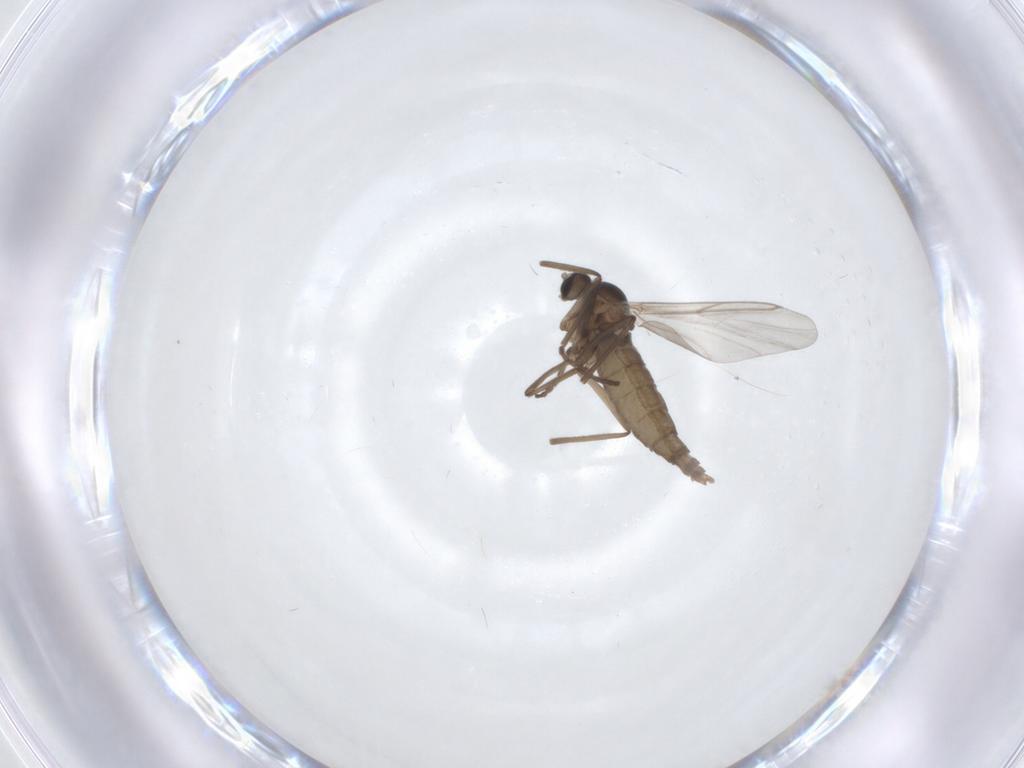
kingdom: Animalia
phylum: Arthropoda
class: Insecta
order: Diptera
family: Cecidomyiidae
